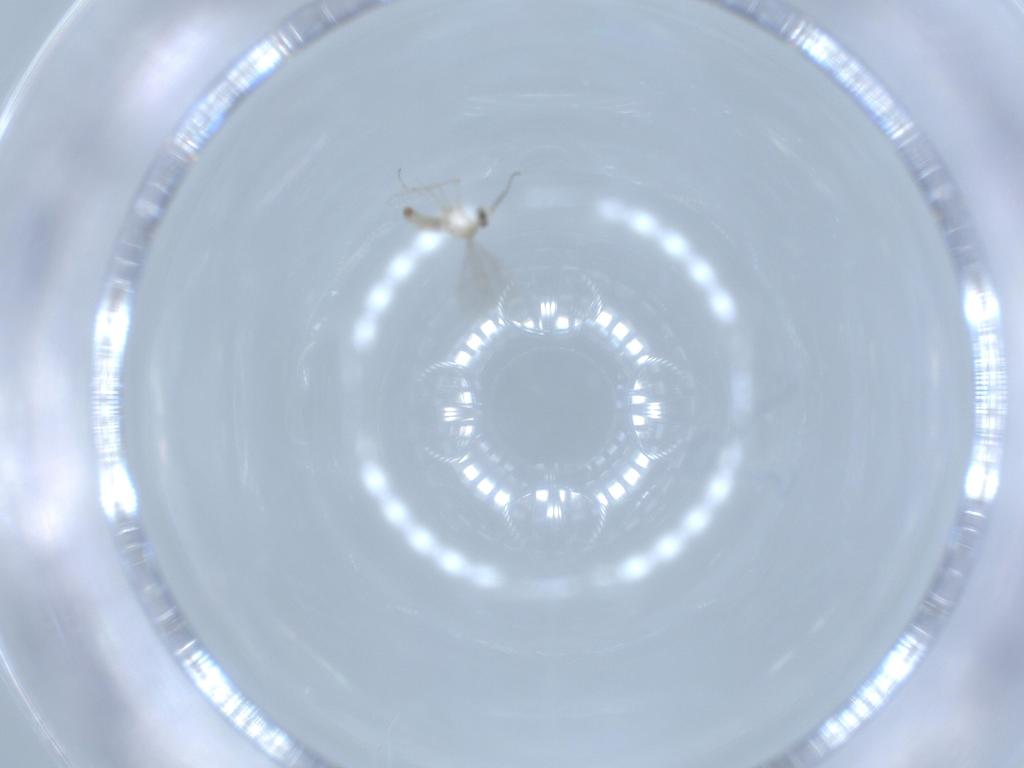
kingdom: Animalia
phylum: Arthropoda
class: Insecta
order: Diptera
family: Cecidomyiidae
